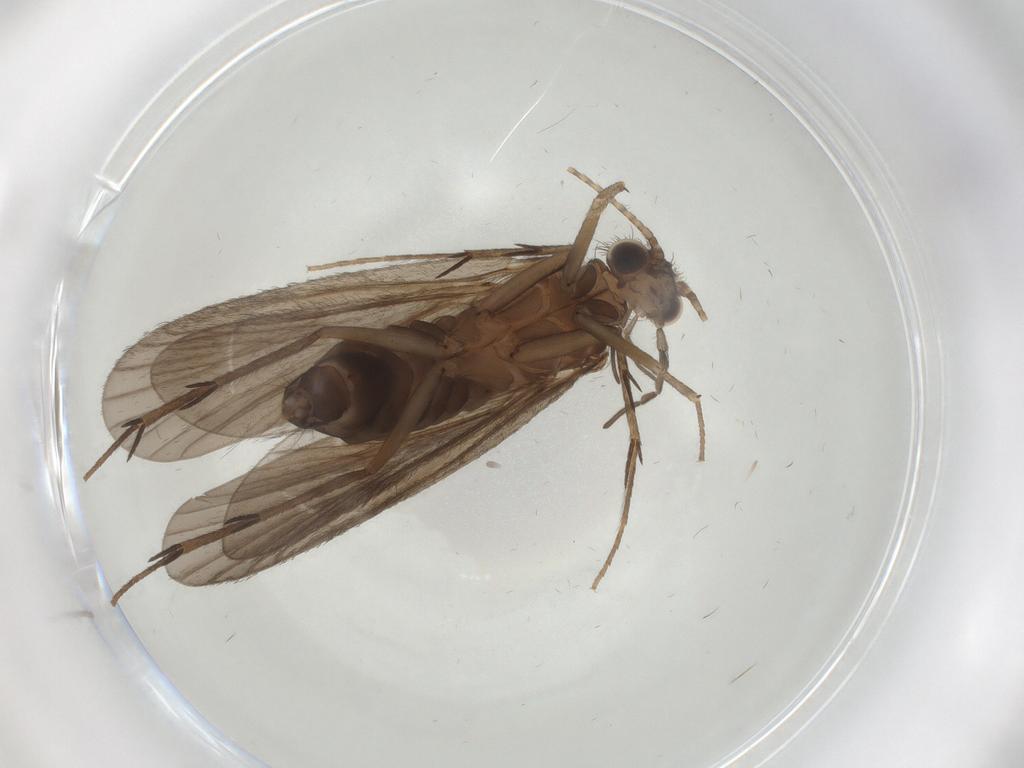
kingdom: Animalia
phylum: Arthropoda
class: Insecta
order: Trichoptera
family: Philopotamidae
